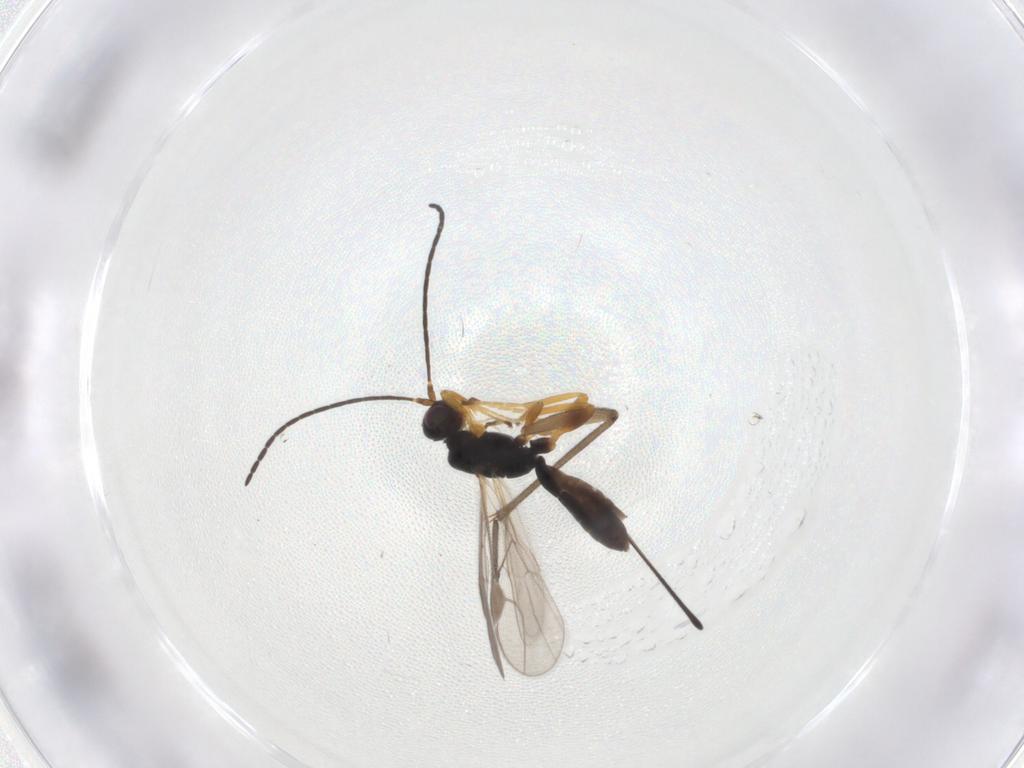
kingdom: Animalia
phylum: Arthropoda
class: Insecta
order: Diptera
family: Sciaridae
